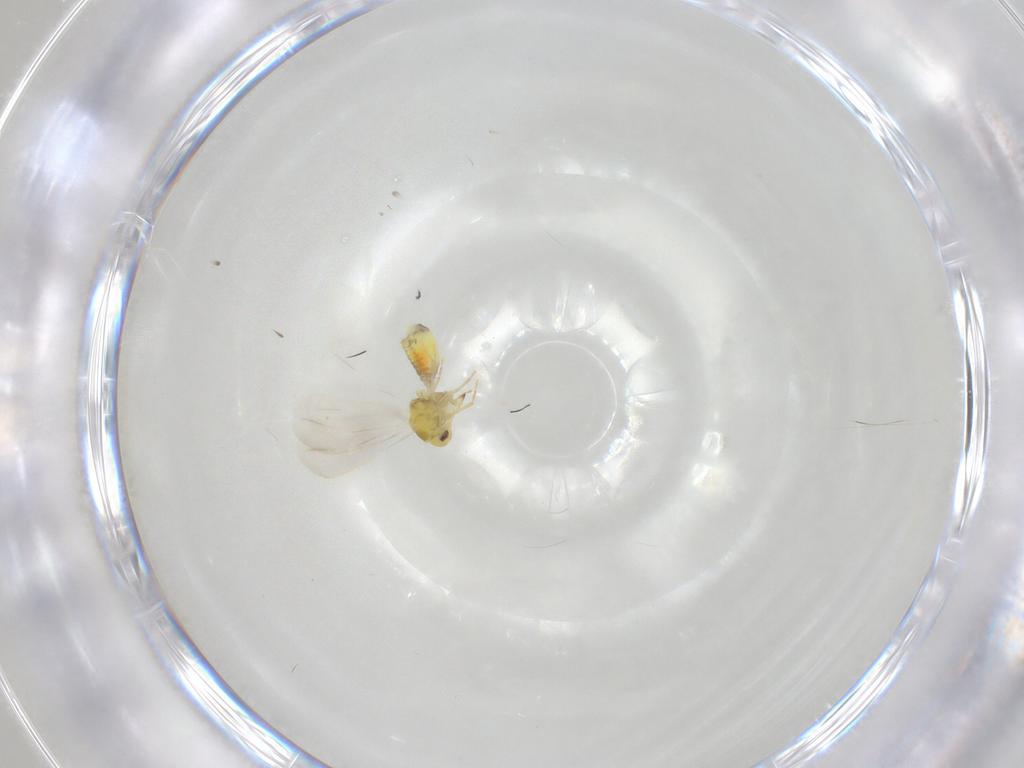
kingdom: Animalia
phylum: Arthropoda
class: Insecta
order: Hemiptera
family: Aleyrodidae
